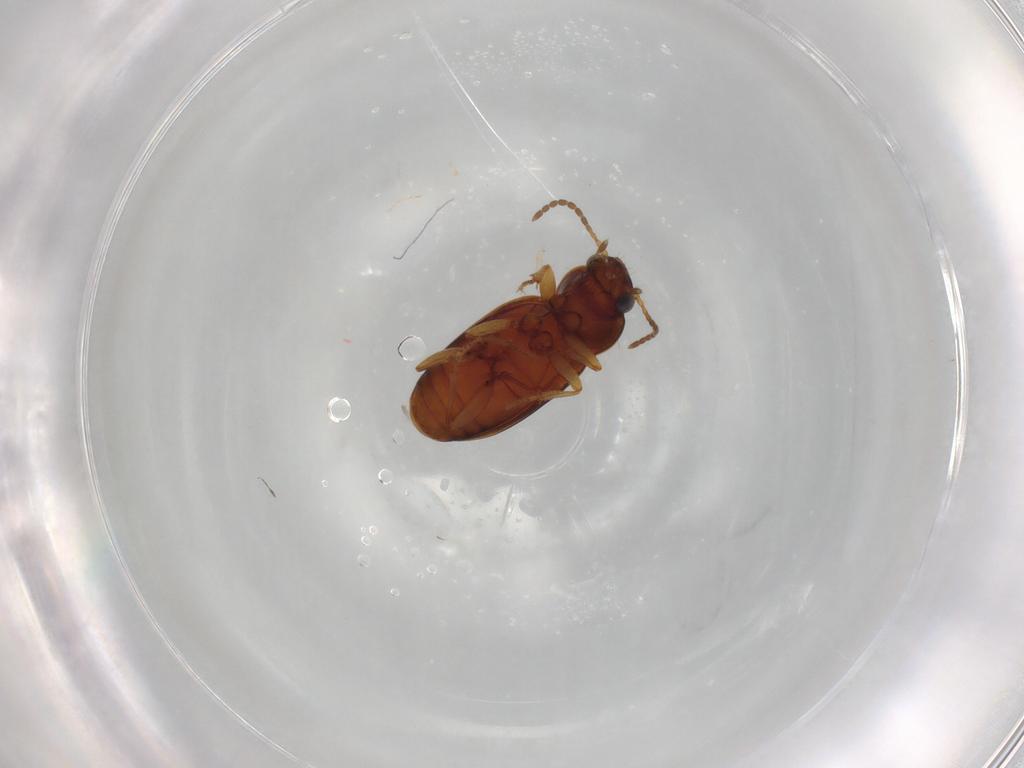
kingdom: Animalia
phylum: Arthropoda
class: Insecta
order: Coleoptera
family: Carabidae
